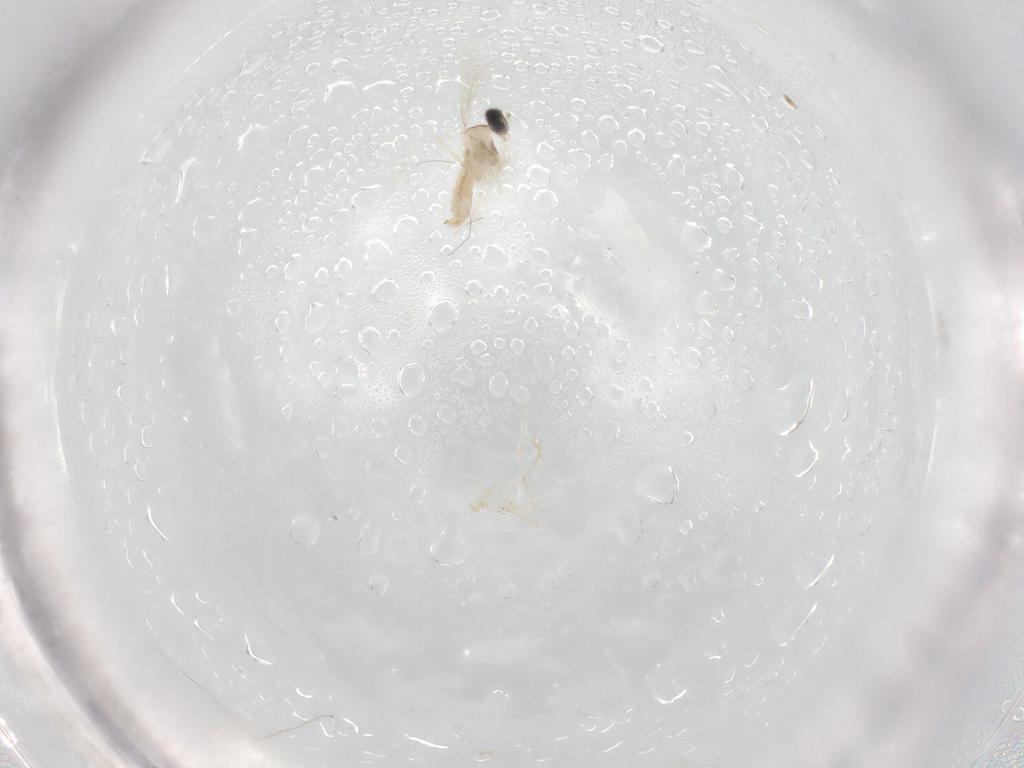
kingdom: Animalia
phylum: Arthropoda
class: Insecta
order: Diptera
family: Cecidomyiidae
